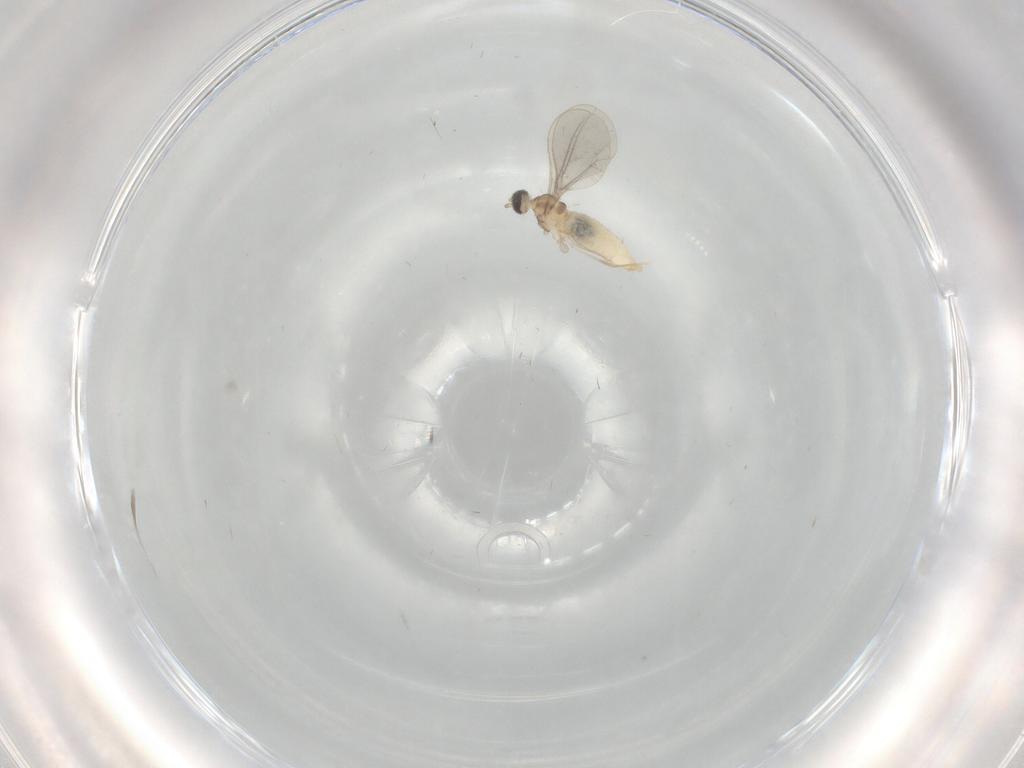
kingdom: Animalia
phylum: Arthropoda
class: Insecta
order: Diptera
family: Cecidomyiidae
